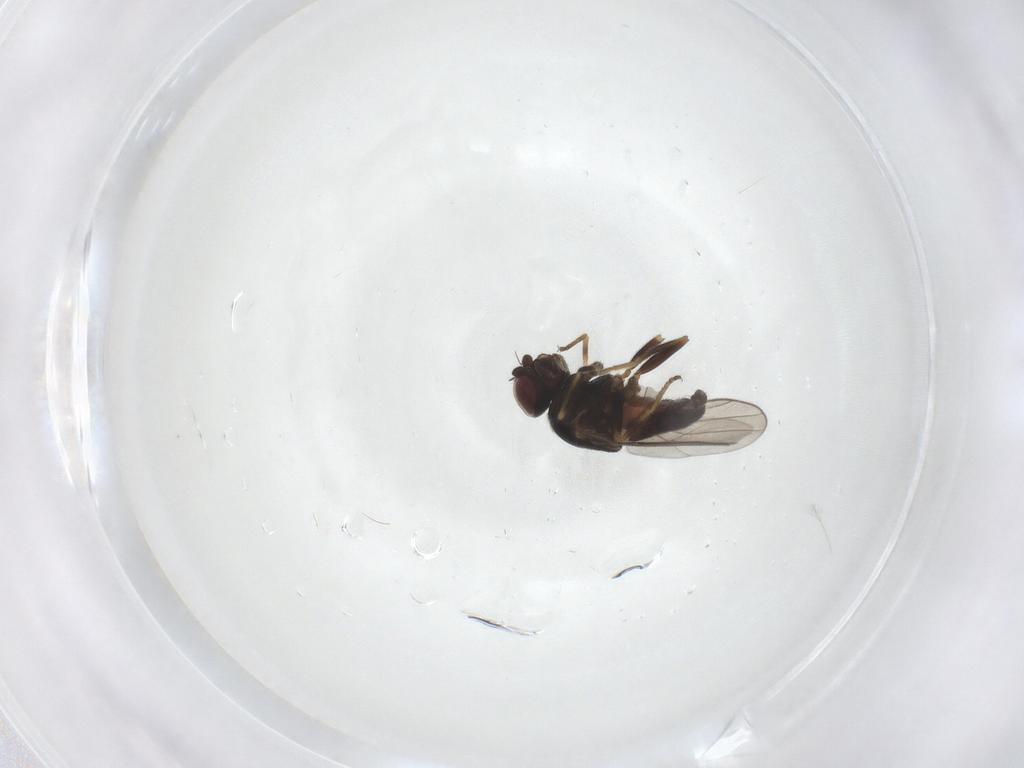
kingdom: Animalia
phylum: Arthropoda
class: Insecta
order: Diptera
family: Chloropidae
